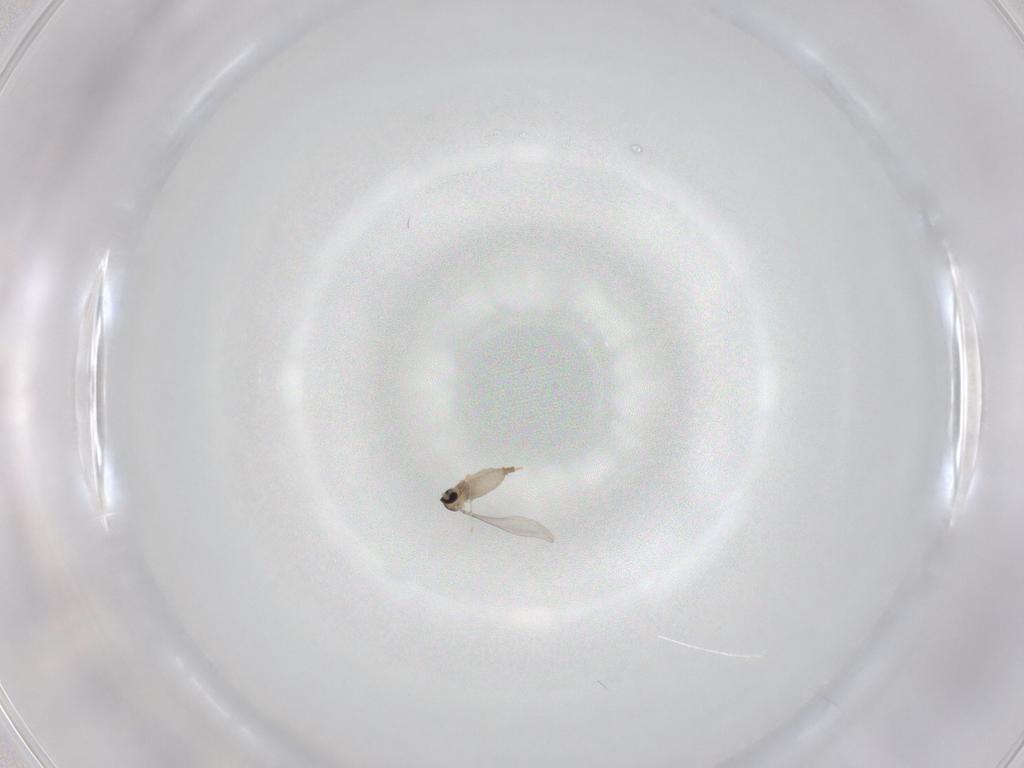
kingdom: Animalia
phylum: Arthropoda
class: Insecta
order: Diptera
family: Cecidomyiidae
